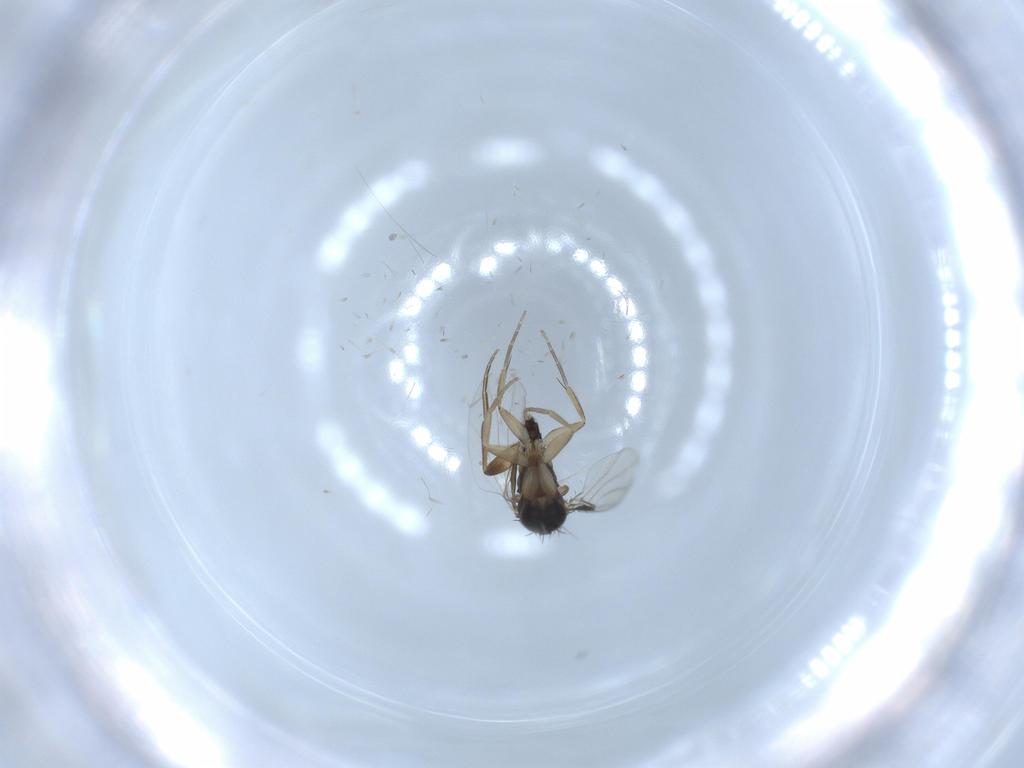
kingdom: Animalia
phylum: Arthropoda
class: Insecta
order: Diptera
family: Phoridae
